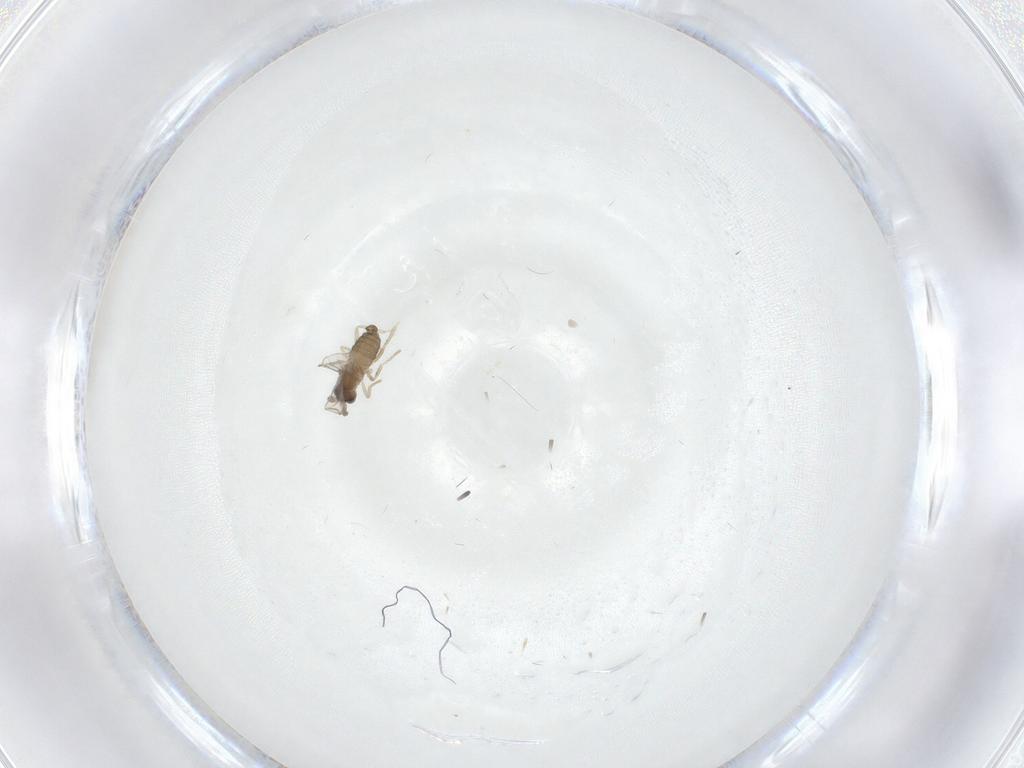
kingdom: Animalia
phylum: Arthropoda
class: Insecta
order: Diptera
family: Cecidomyiidae
